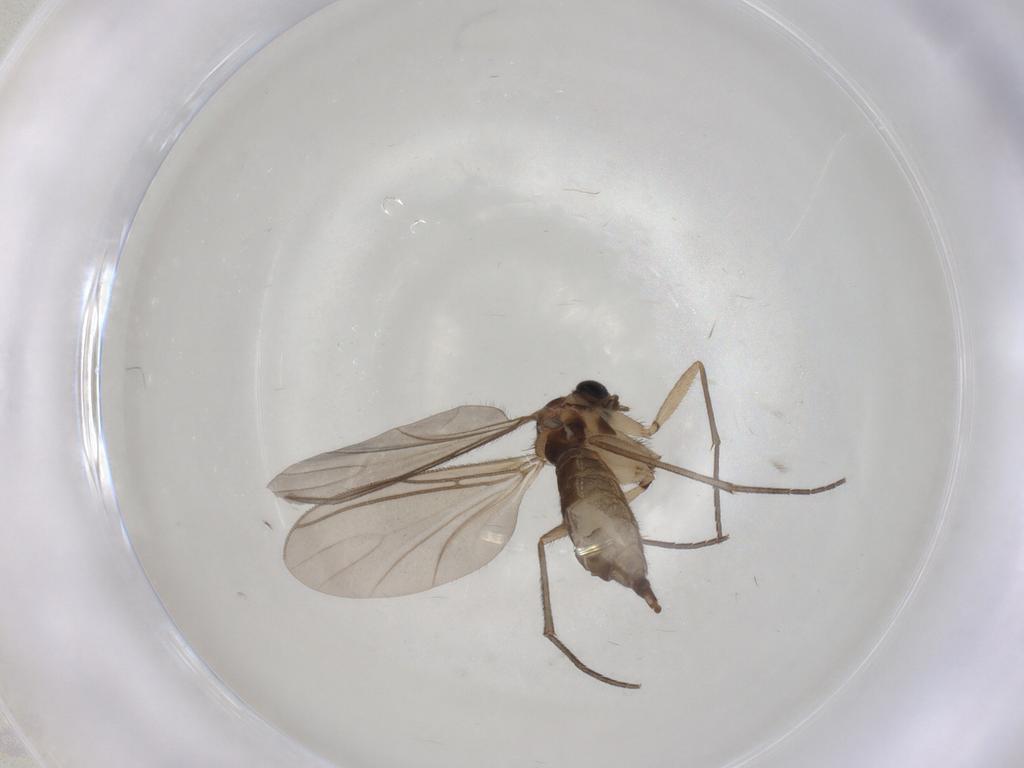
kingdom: Animalia
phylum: Arthropoda
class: Insecta
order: Diptera
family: Sciaridae
